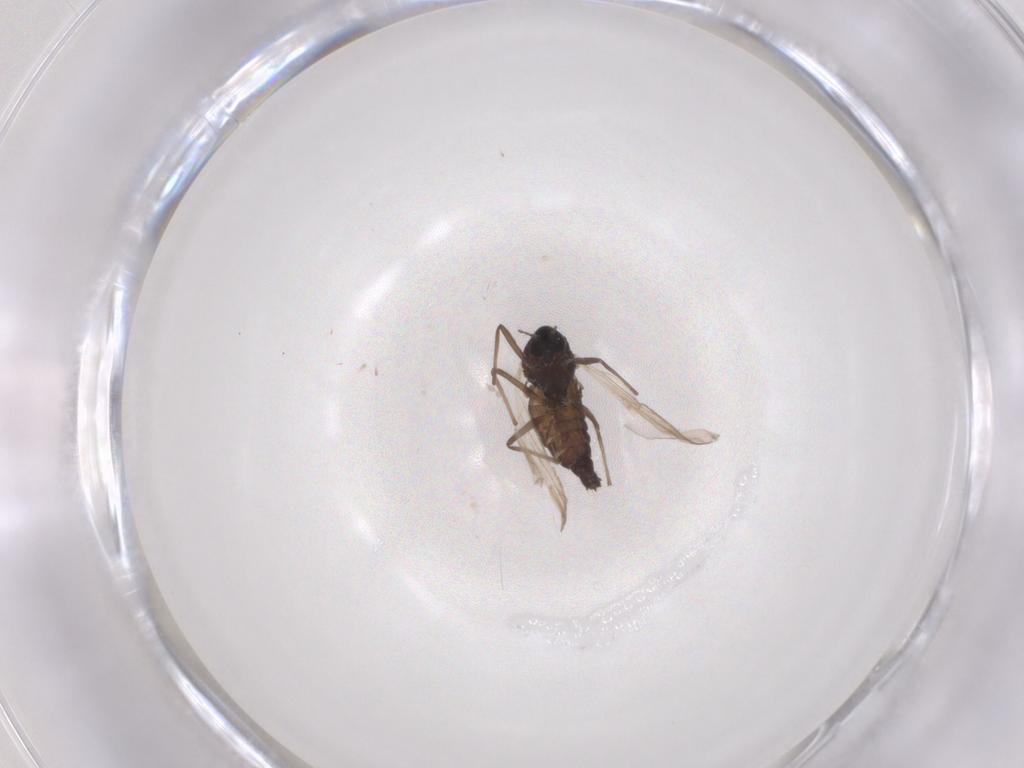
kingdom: Animalia
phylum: Arthropoda
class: Insecta
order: Diptera
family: Chironomidae
